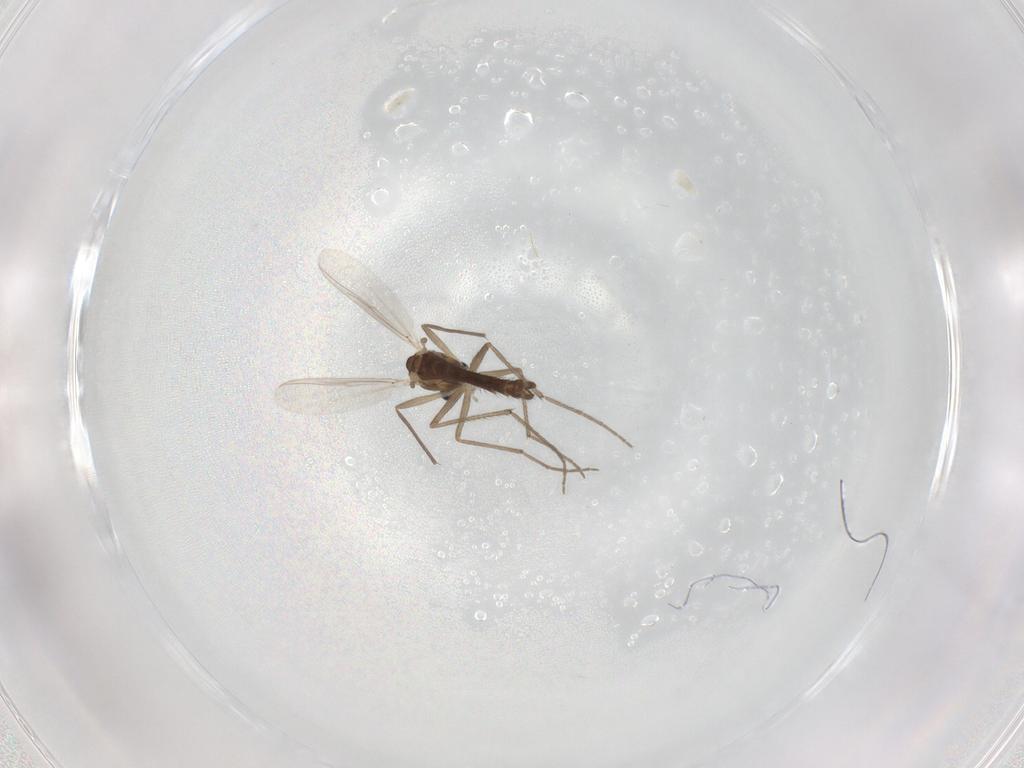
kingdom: Animalia
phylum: Arthropoda
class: Insecta
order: Diptera
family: Chironomidae
